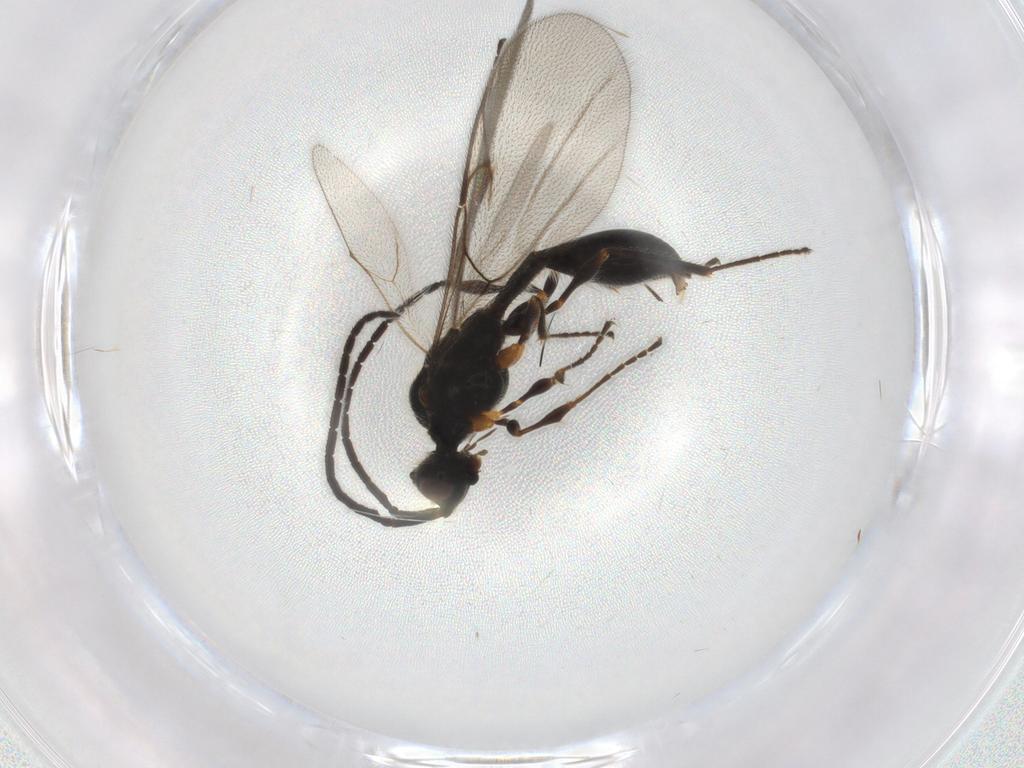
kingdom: Animalia
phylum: Arthropoda
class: Insecta
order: Hymenoptera
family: Diapriidae
